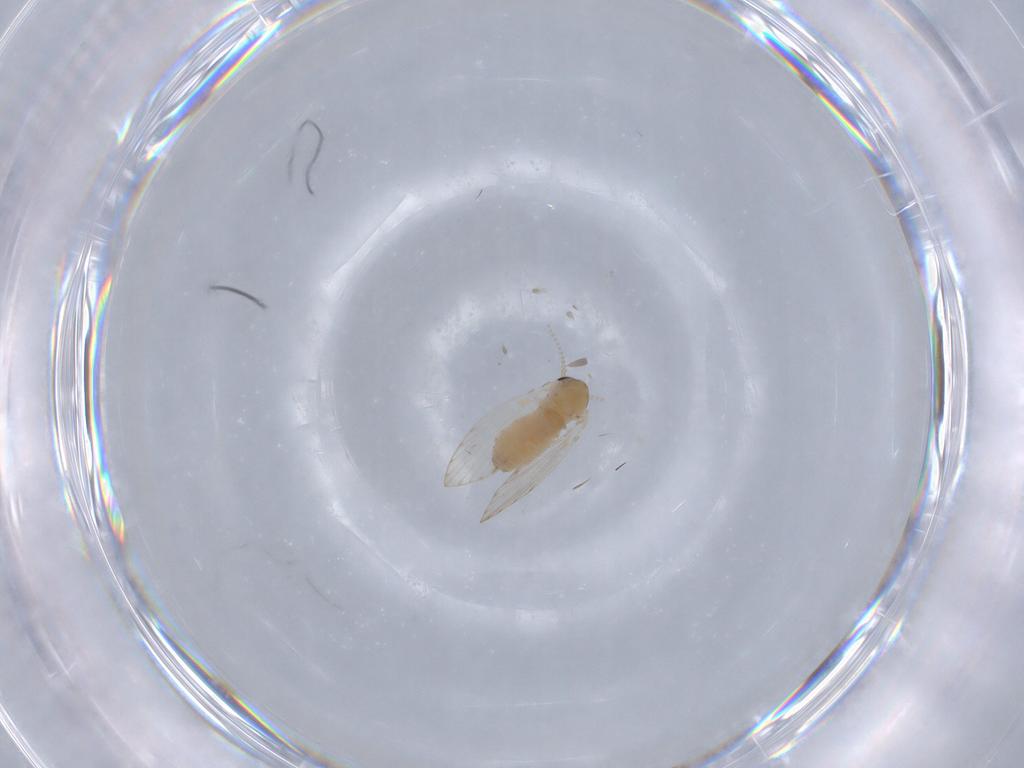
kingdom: Animalia
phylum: Arthropoda
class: Insecta
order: Diptera
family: Psychodidae
